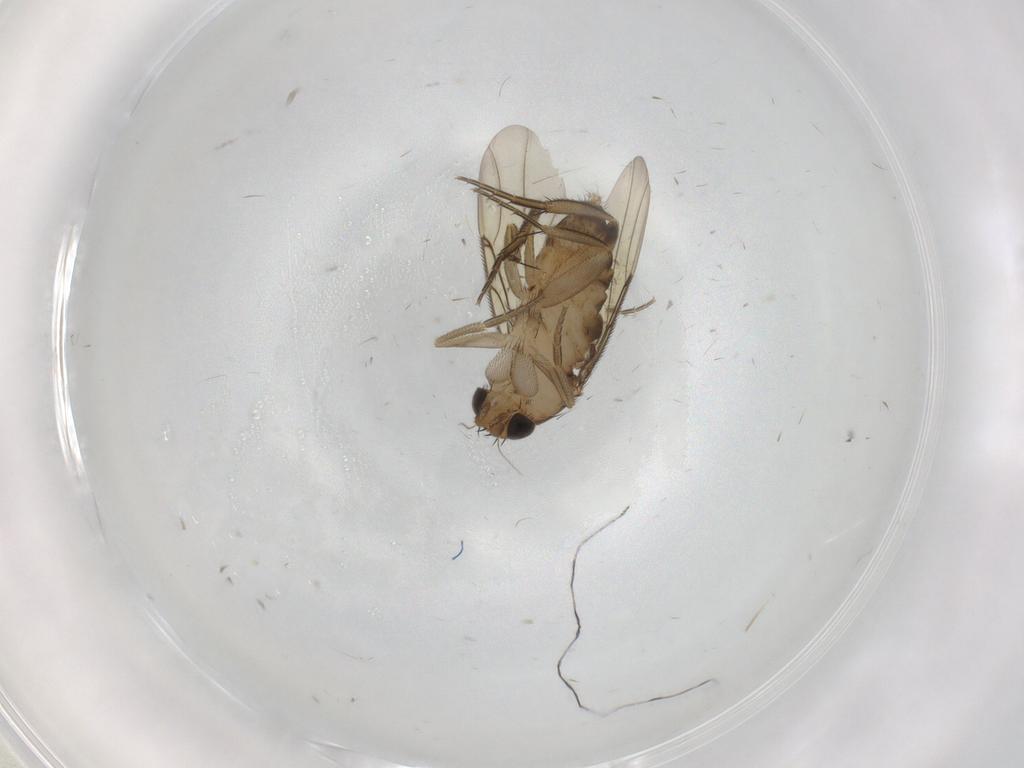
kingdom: Animalia
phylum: Arthropoda
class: Insecta
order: Diptera
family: Phoridae
